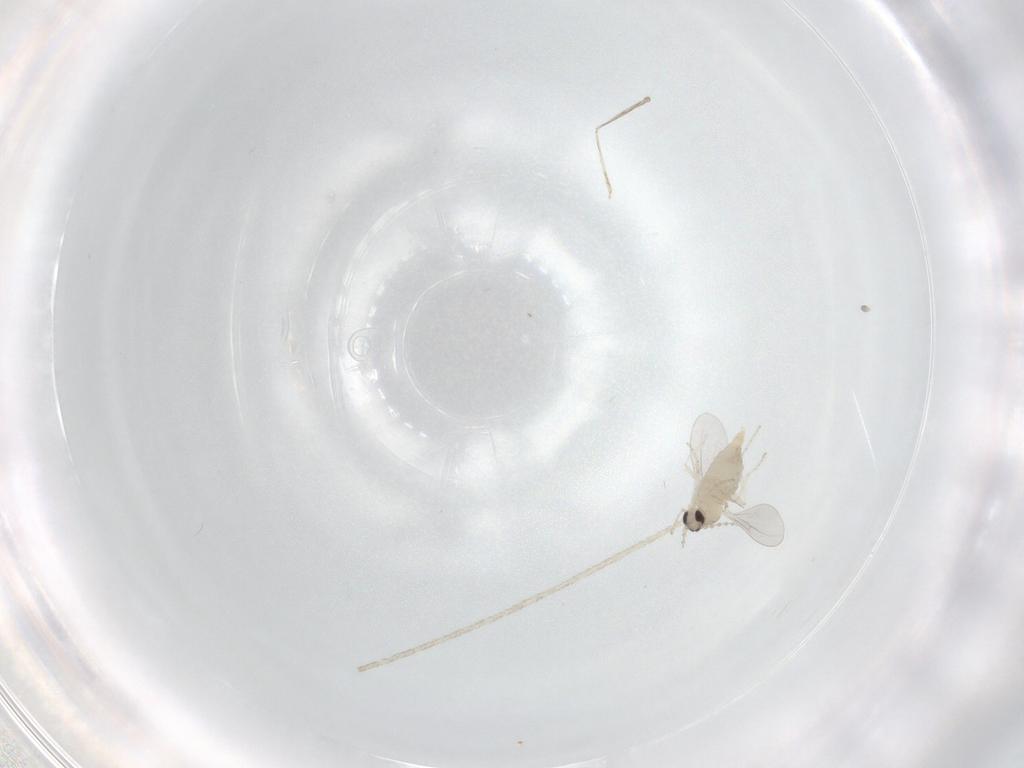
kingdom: Animalia
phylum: Arthropoda
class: Insecta
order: Diptera
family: Cecidomyiidae
